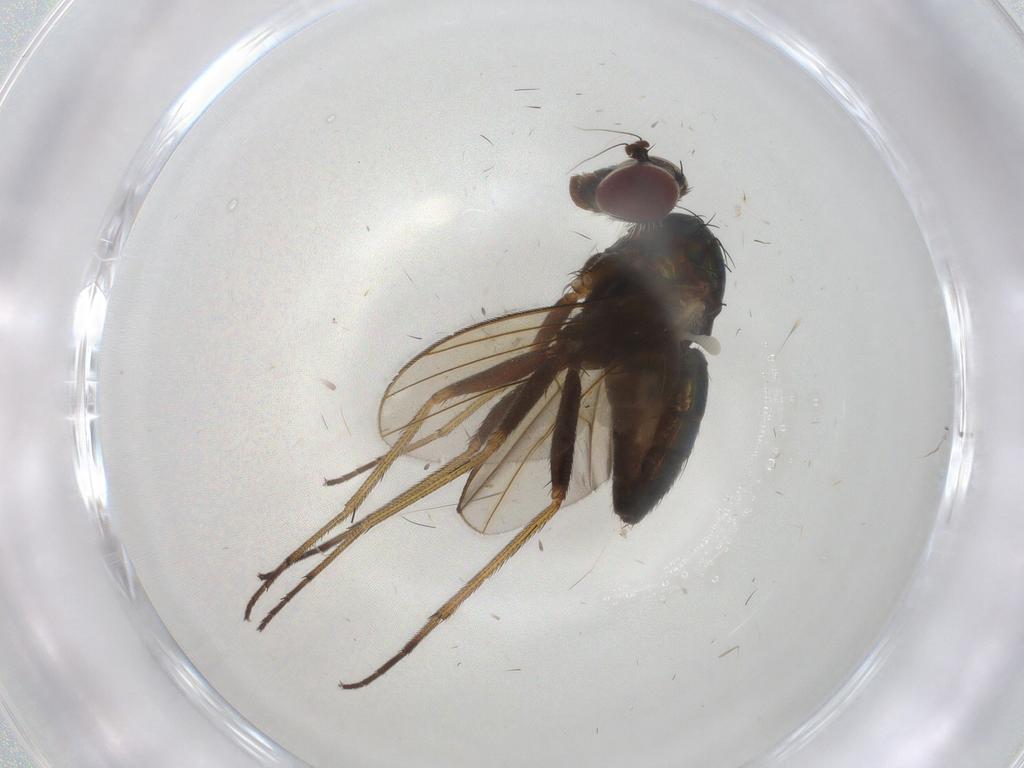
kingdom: Animalia
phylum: Arthropoda
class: Insecta
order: Diptera
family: Dolichopodidae
